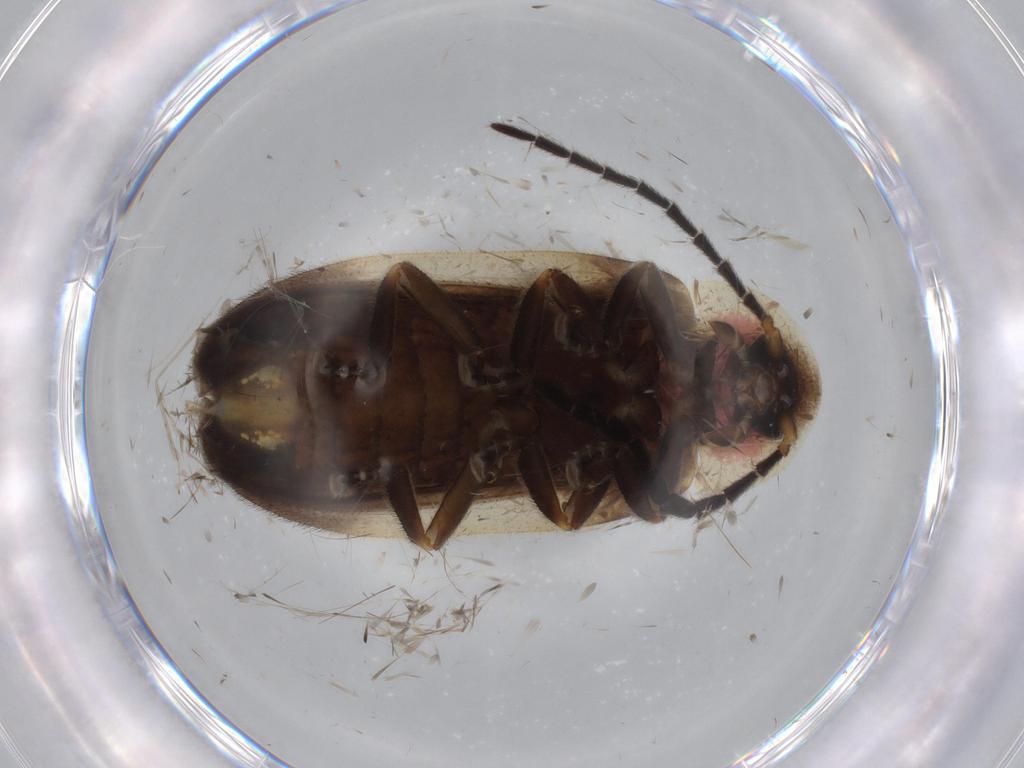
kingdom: Animalia
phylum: Arthropoda
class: Insecta
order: Coleoptera
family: Lampyridae
